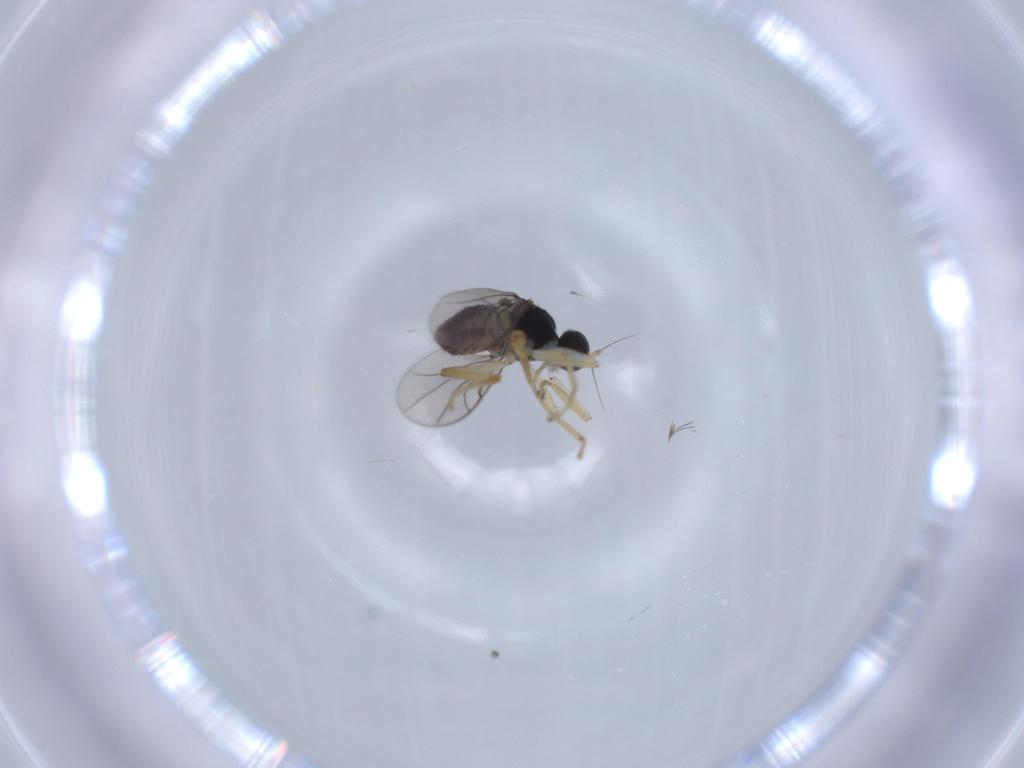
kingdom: Animalia
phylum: Arthropoda
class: Insecta
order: Diptera
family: Hybotidae
